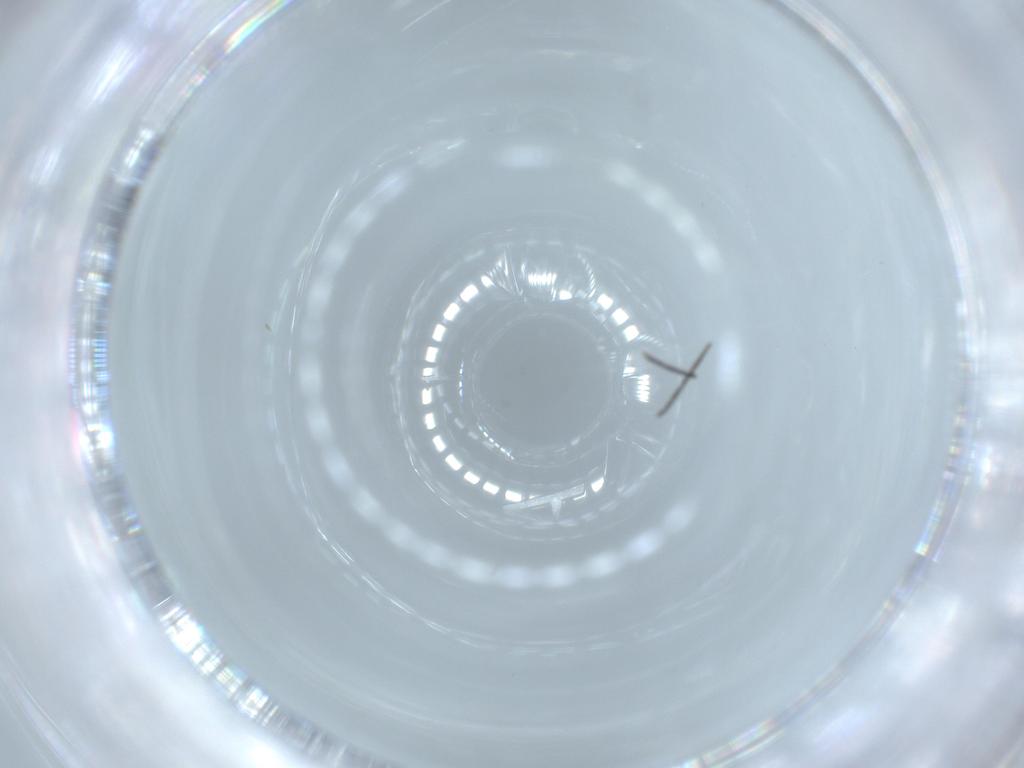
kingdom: Animalia
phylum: Arthropoda
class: Insecta
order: Diptera
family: Sciaridae
